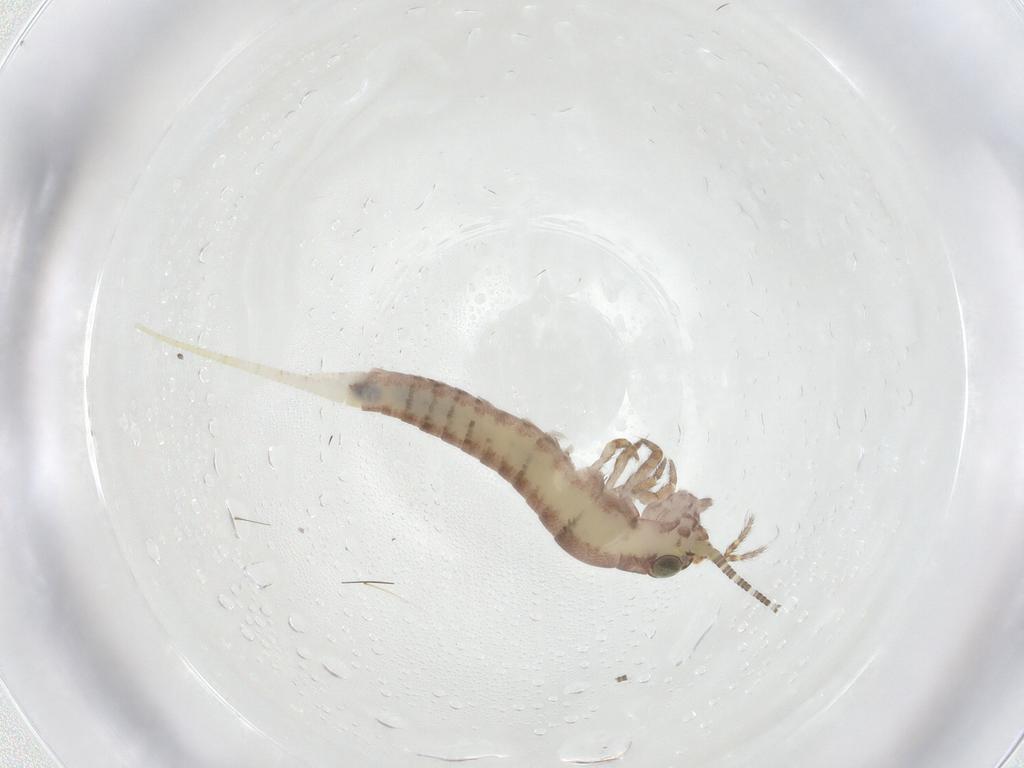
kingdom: Animalia
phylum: Arthropoda
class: Insecta
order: Archaeognatha
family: Meinertellidae
